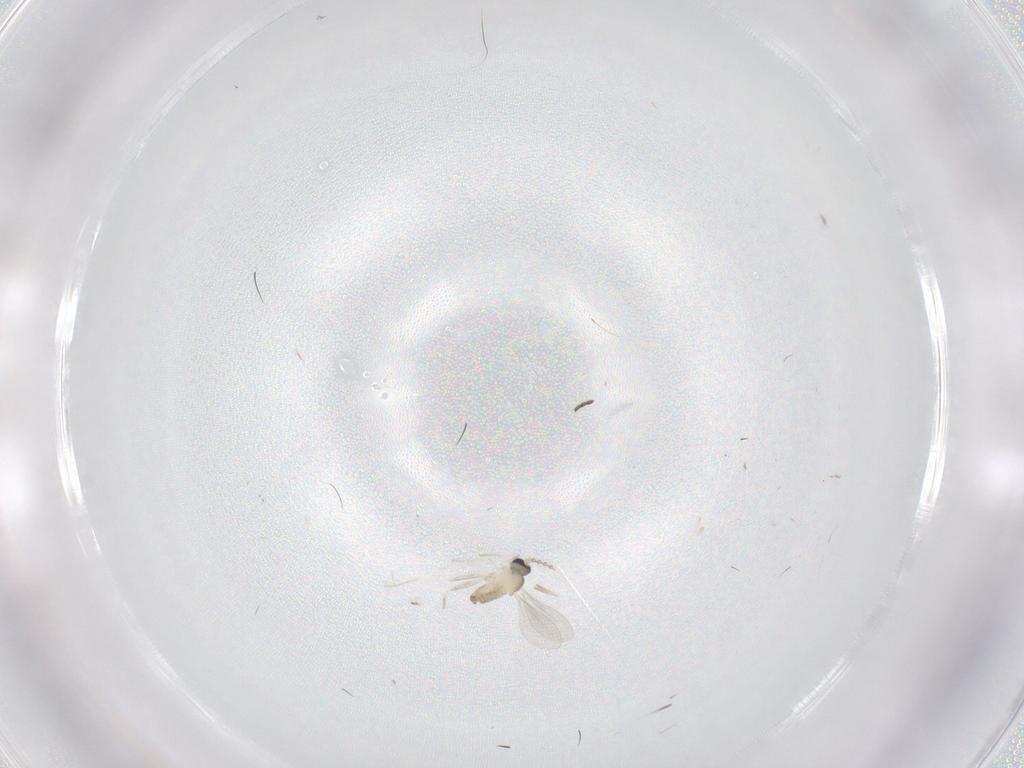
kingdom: Animalia
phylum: Arthropoda
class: Insecta
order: Diptera
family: Cecidomyiidae
